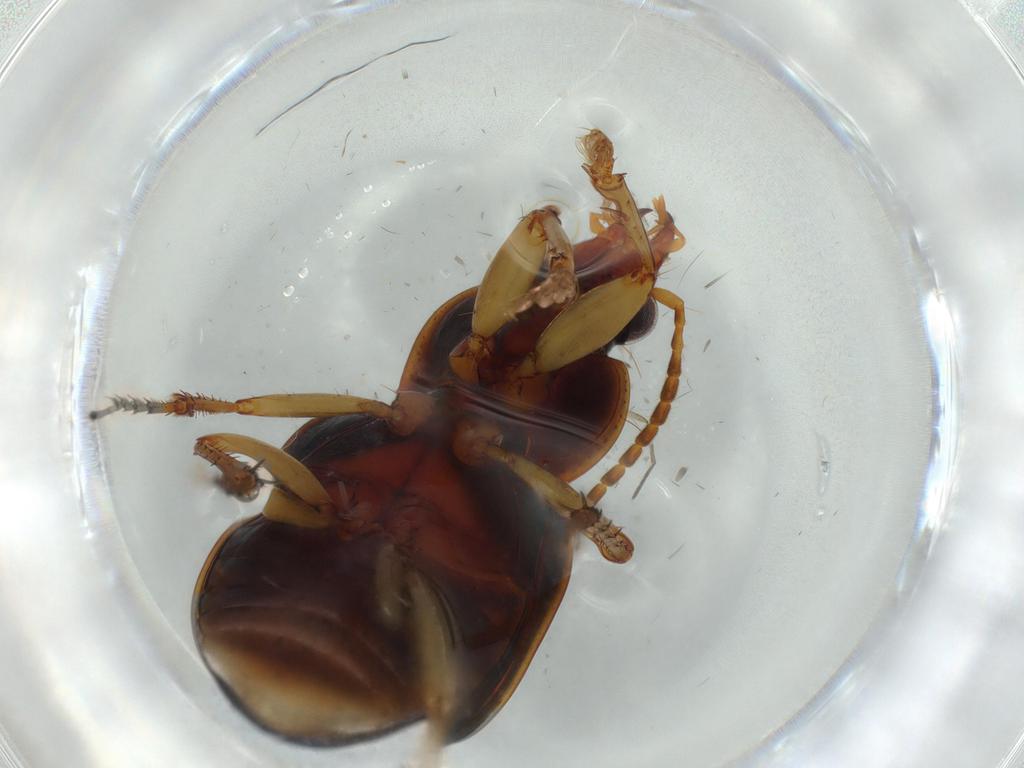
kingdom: Animalia
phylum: Arthropoda
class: Insecta
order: Coleoptera
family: Carabidae
